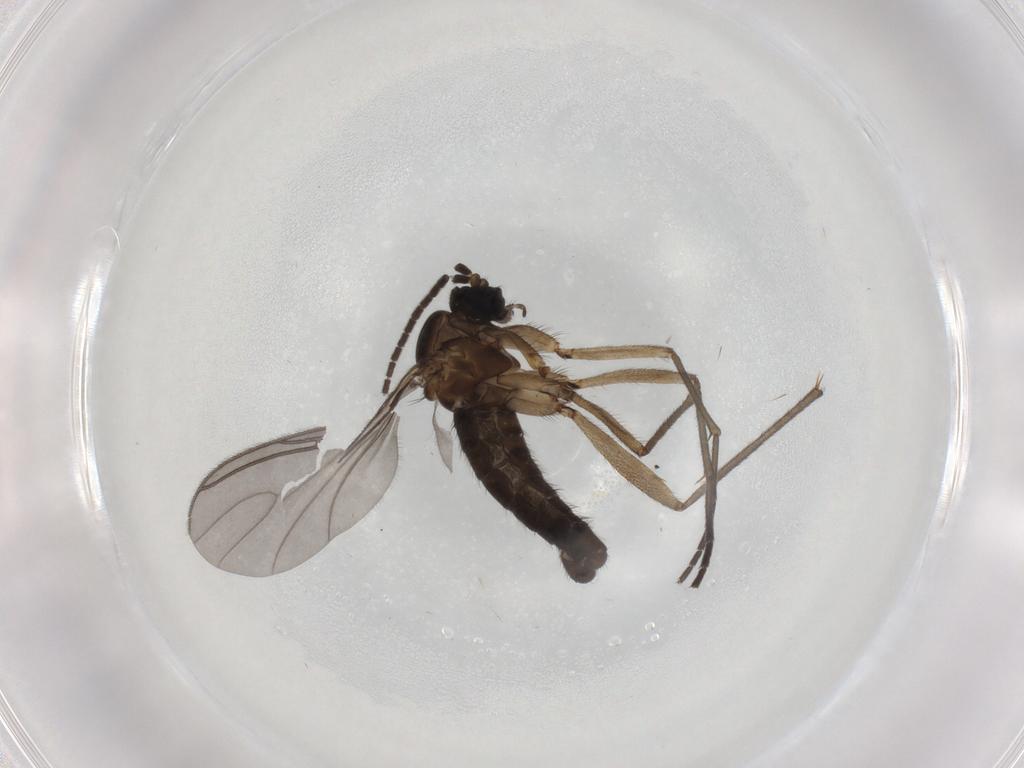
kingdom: Animalia
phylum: Arthropoda
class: Insecta
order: Diptera
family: Sciaridae
